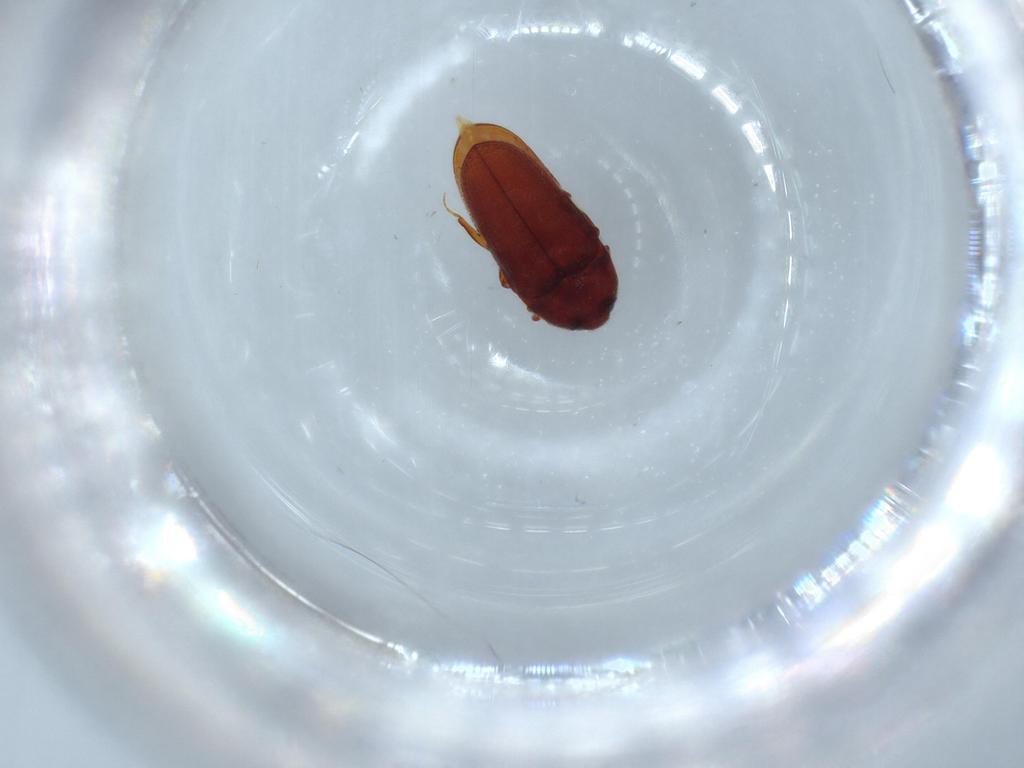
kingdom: Animalia
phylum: Arthropoda
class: Insecta
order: Coleoptera
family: Throscidae
